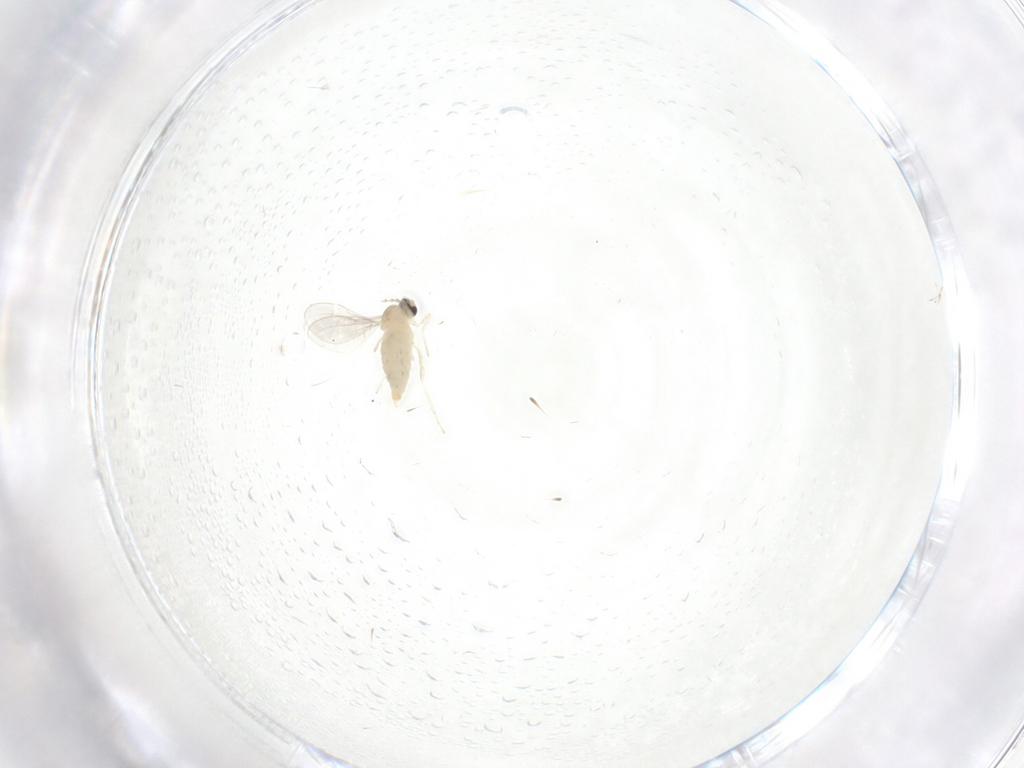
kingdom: Animalia
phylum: Arthropoda
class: Insecta
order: Diptera
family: Cecidomyiidae
